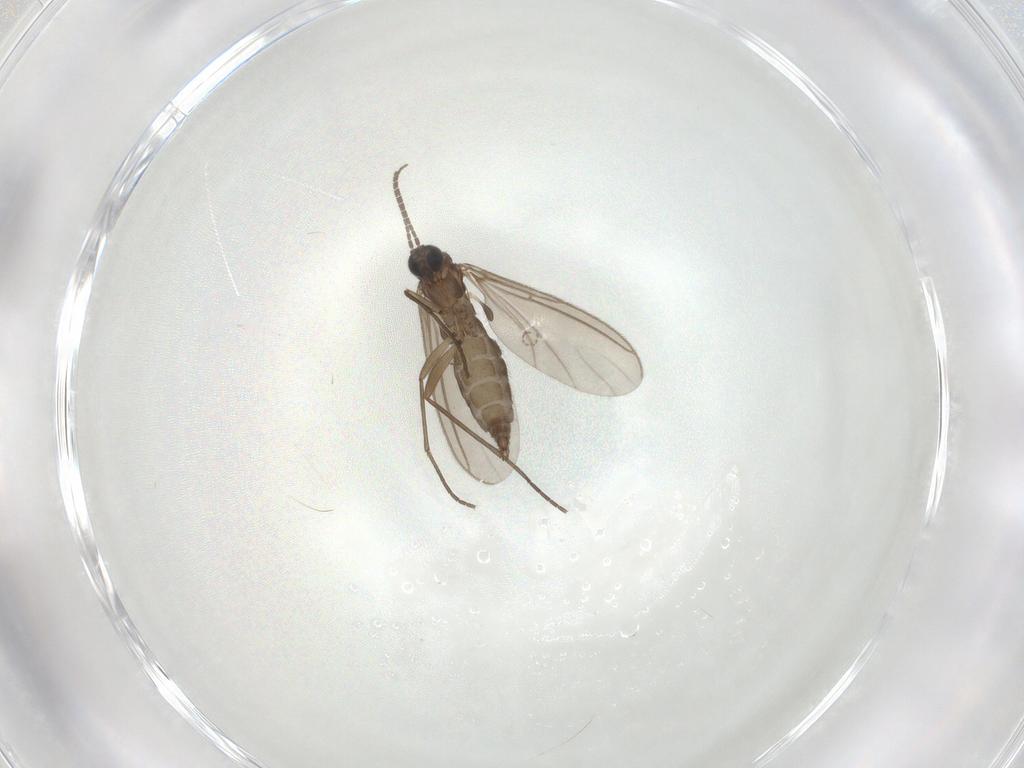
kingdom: Animalia
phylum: Arthropoda
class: Insecta
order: Diptera
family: Sciaridae
